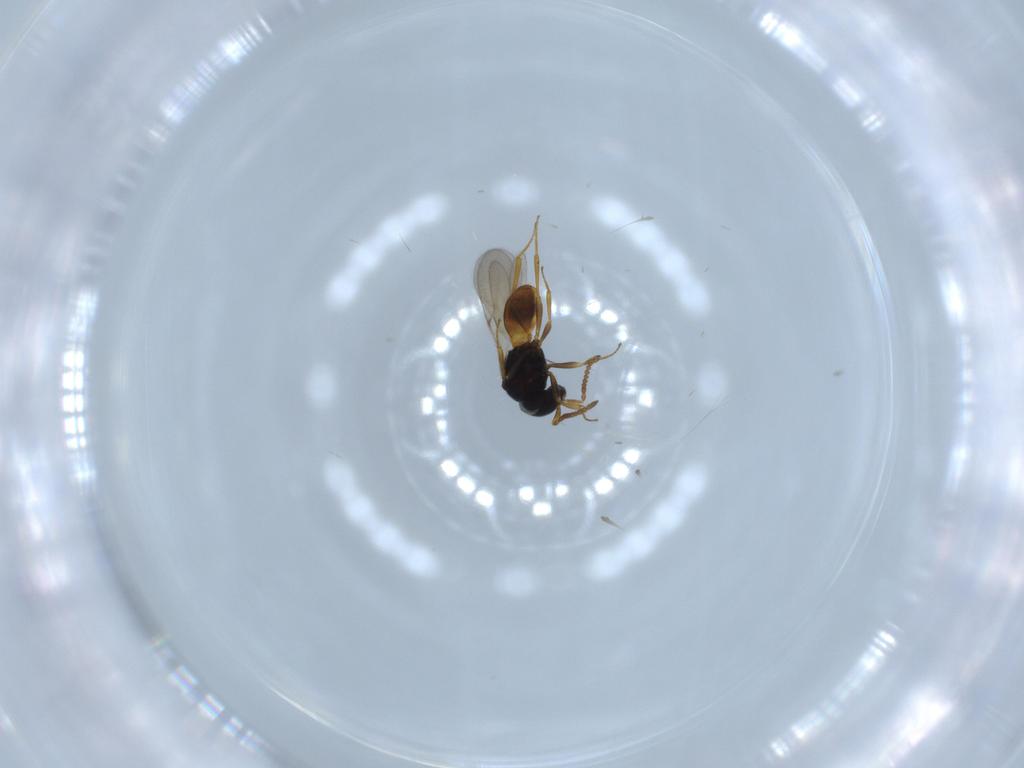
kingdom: Animalia
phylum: Arthropoda
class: Insecta
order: Hymenoptera
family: Scelionidae
